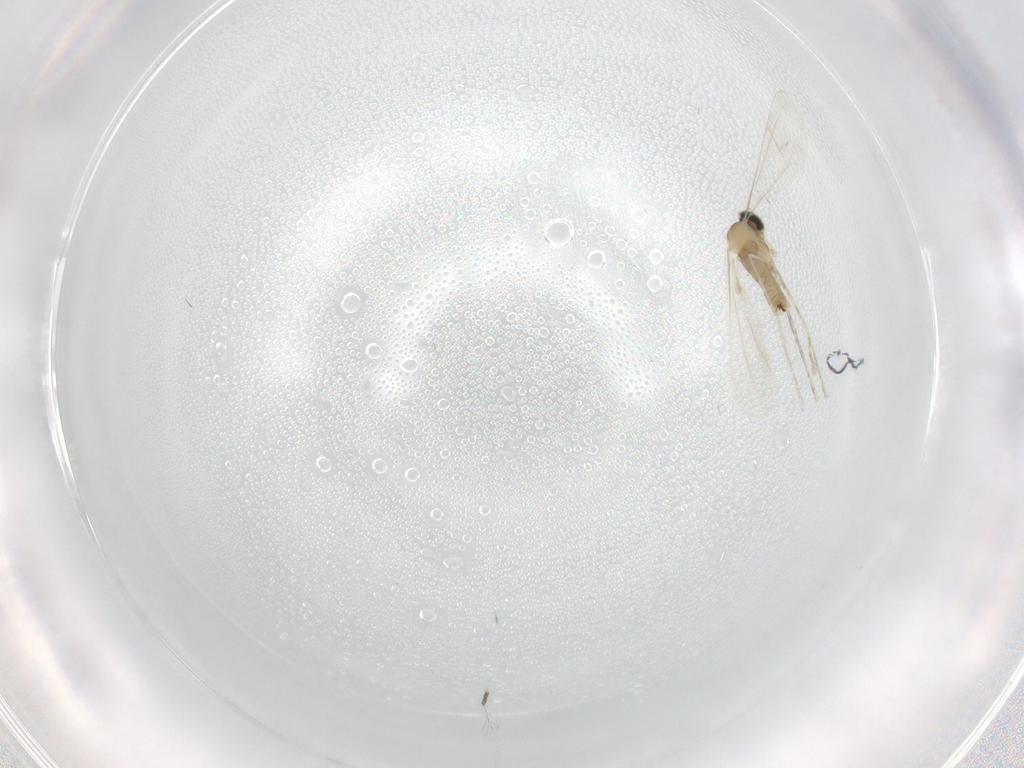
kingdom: Animalia
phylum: Arthropoda
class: Insecta
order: Diptera
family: Cecidomyiidae
